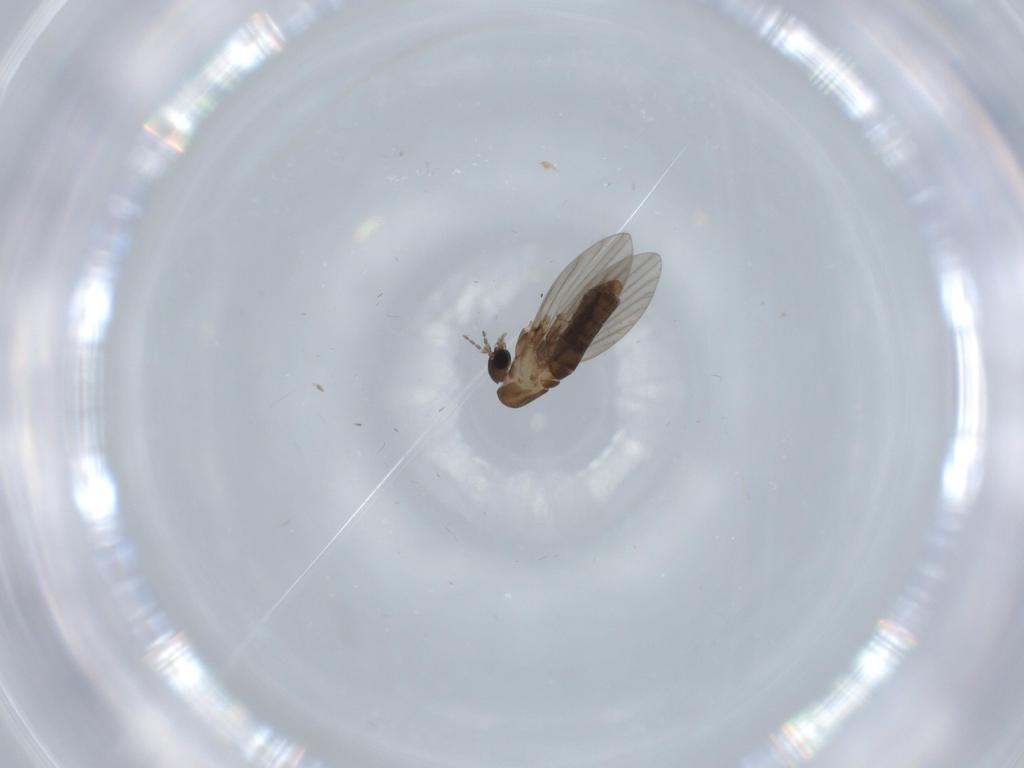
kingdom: Animalia
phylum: Arthropoda
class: Insecta
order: Diptera
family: Psychodidae
